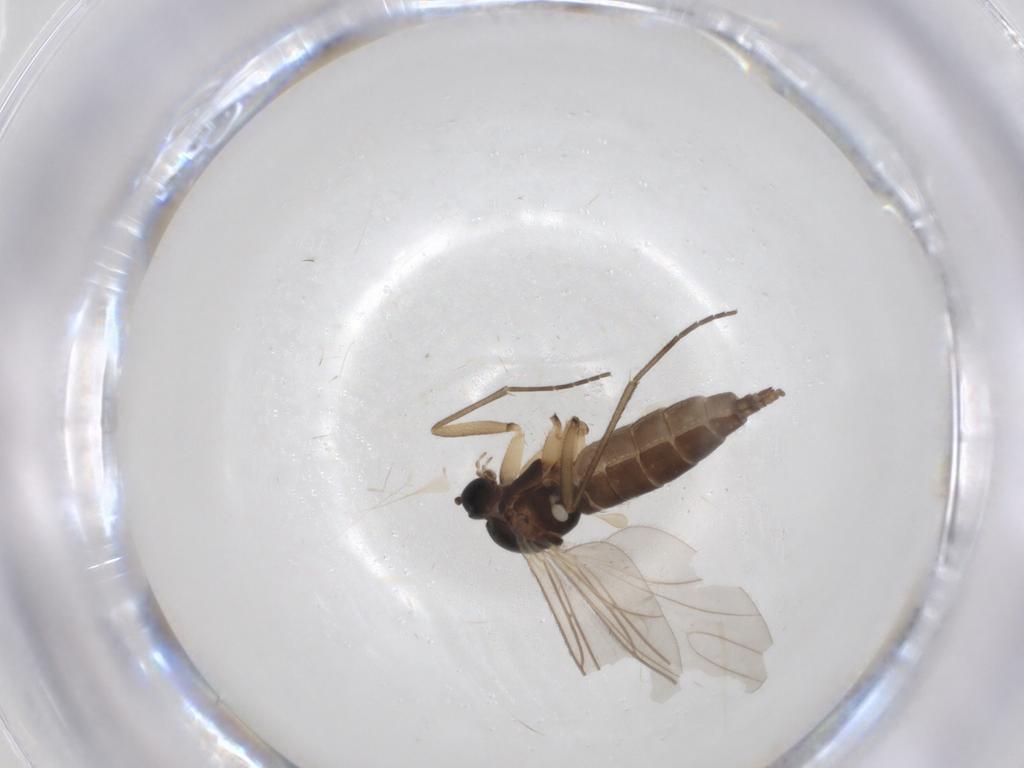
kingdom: Animalia
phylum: Arthropoda
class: Insecta
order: Diptera
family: Sciaridae
